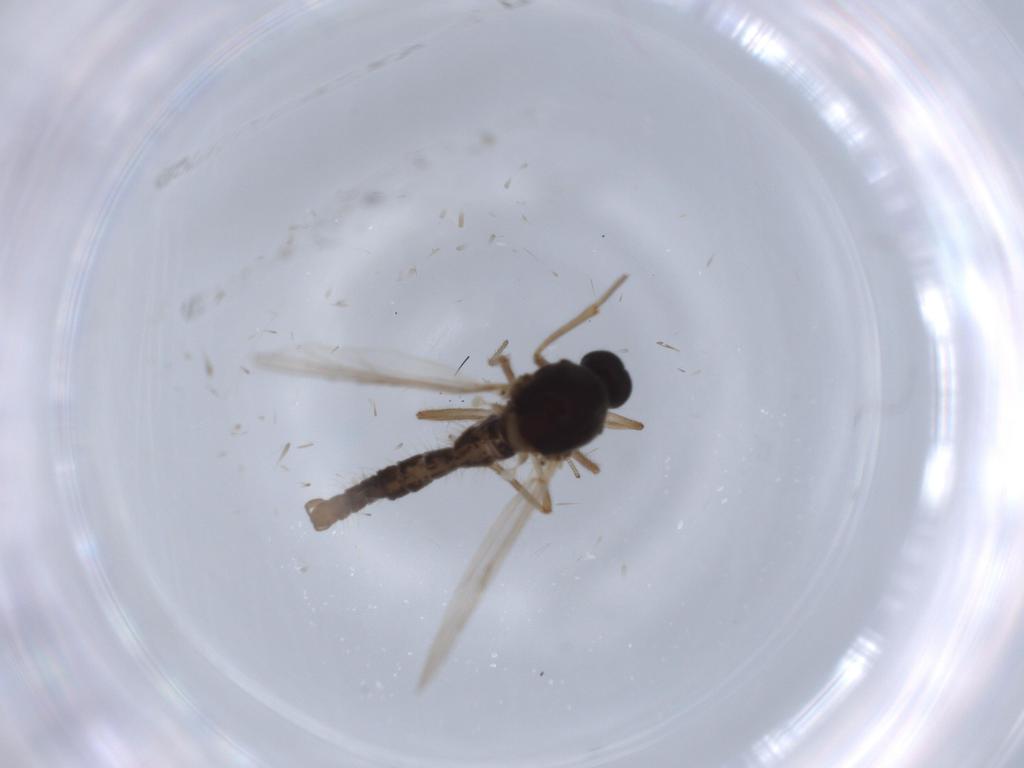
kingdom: Animalia
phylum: Arthropoda
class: Insecta
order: Diptera
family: Ceratopogonidae
